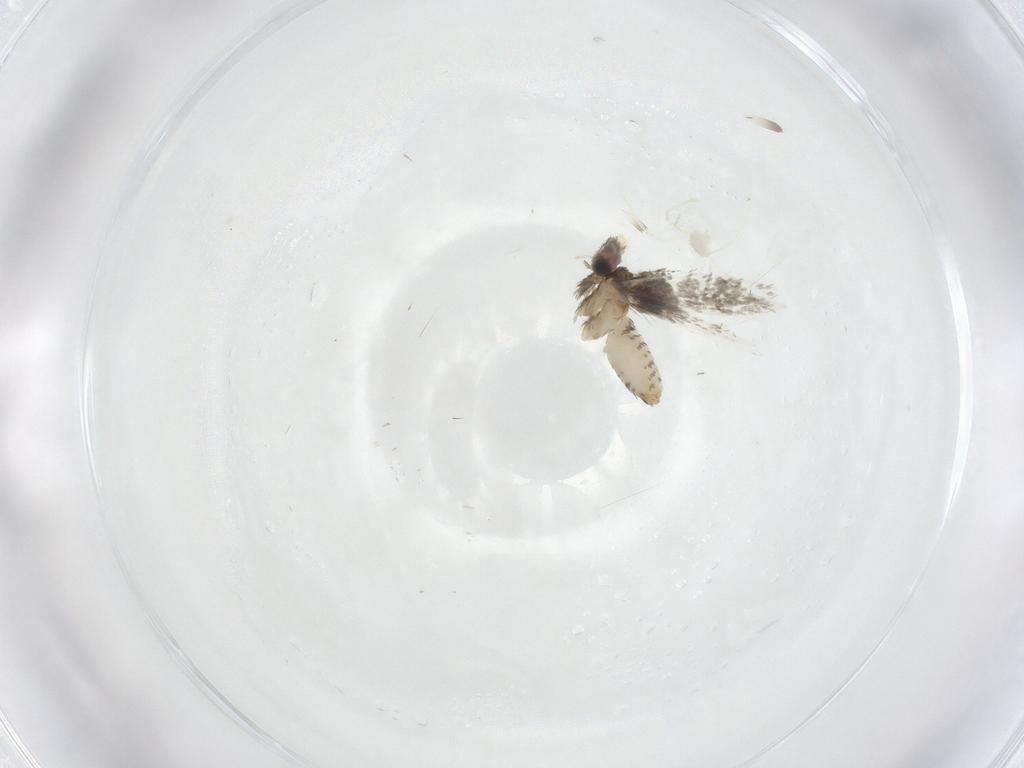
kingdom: Animalia
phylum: Arthropoda
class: Insecta
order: Lepidoptera
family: Nepticulidae
